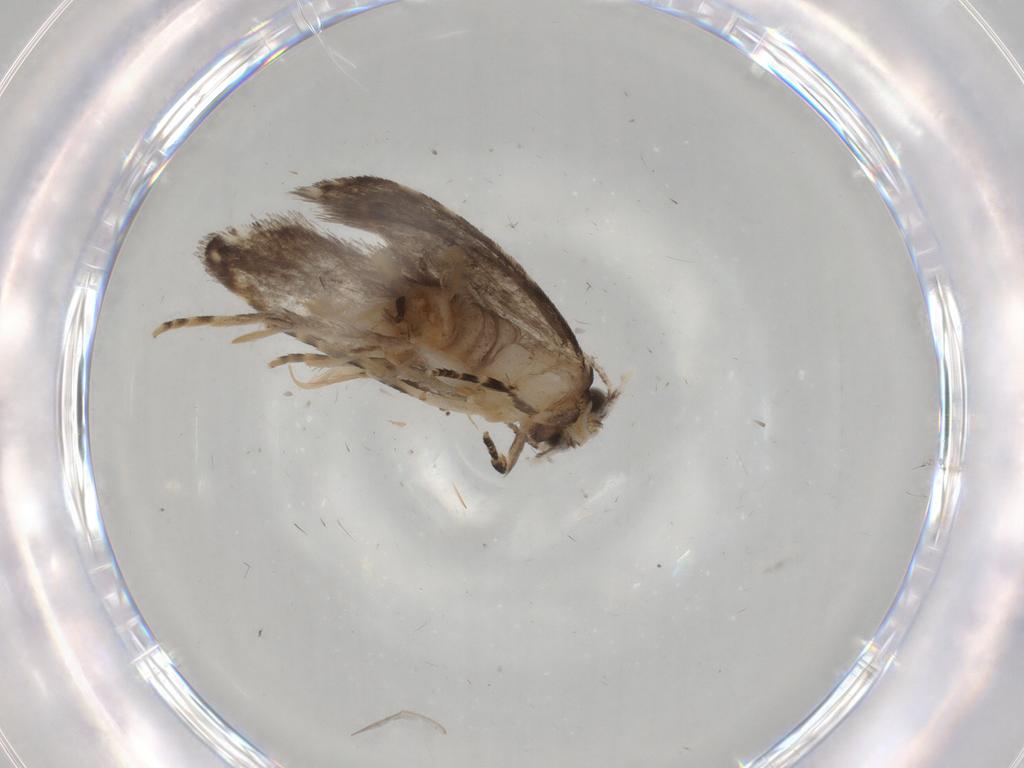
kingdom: Animalia
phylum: Arthropoda
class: Insecta
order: Lepidoptera
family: Tineidae
